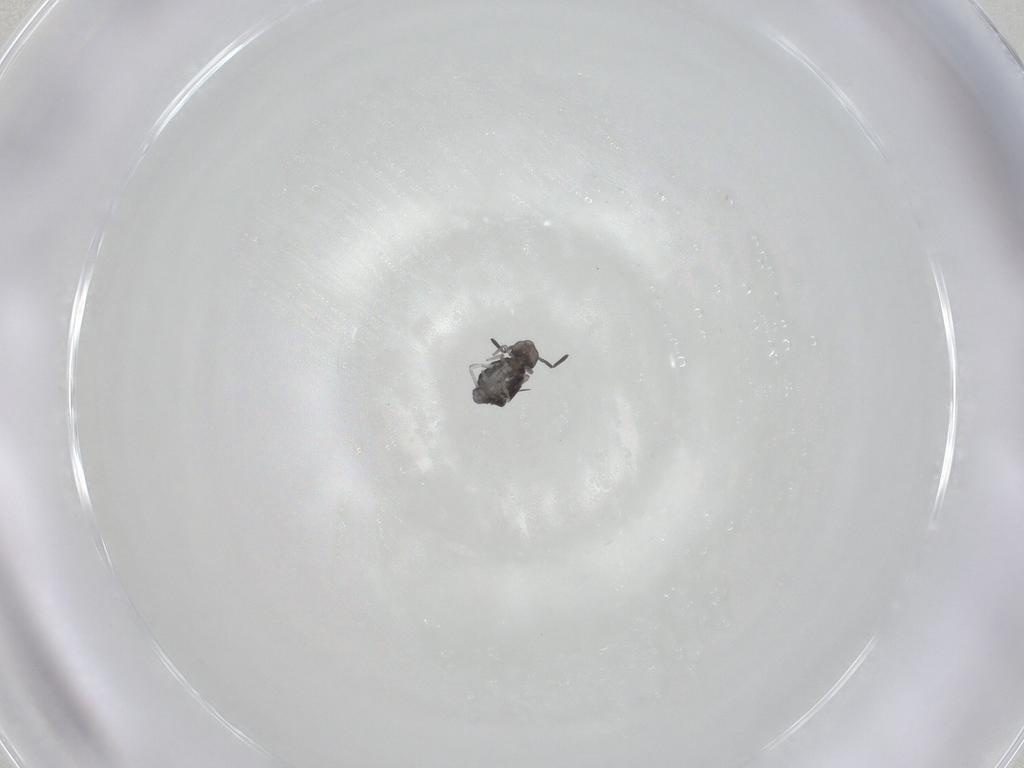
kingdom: Animalia
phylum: Arthropoda
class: Collembola
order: Symphypleona
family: Katiannidae
